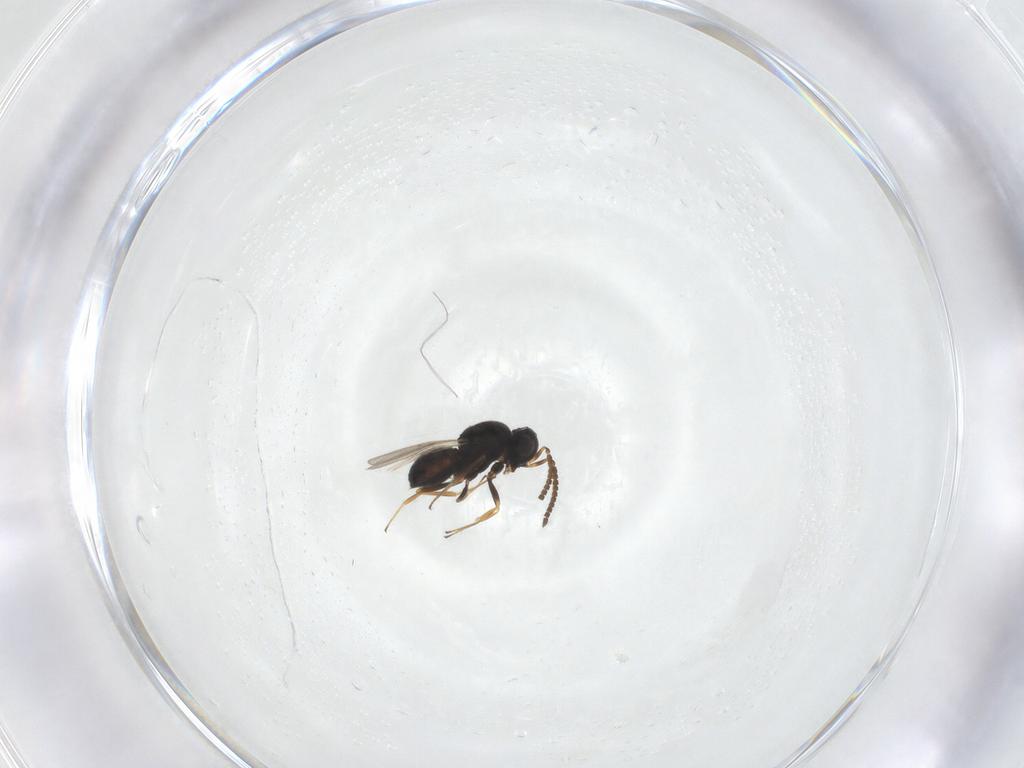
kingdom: Animalia
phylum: Arthropoda
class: Insecta
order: Hymenoptera
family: Scelionidae
